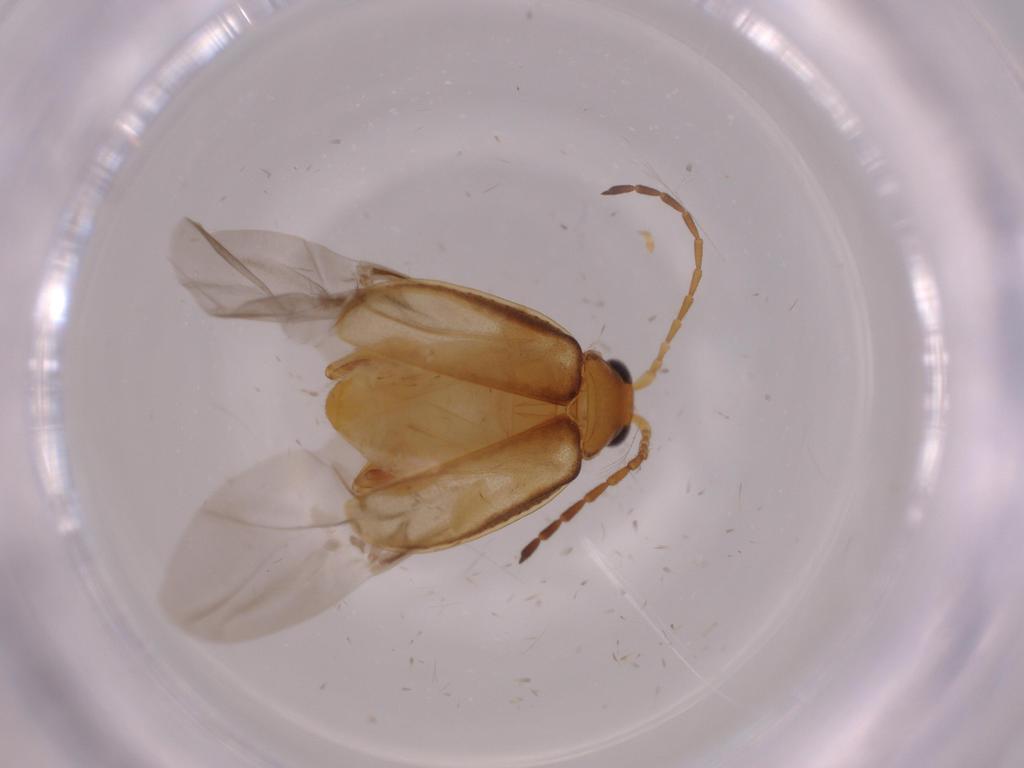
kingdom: Animalia
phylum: Arthropoda
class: Insecta
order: Coleoptera
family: Chrysomelidae
